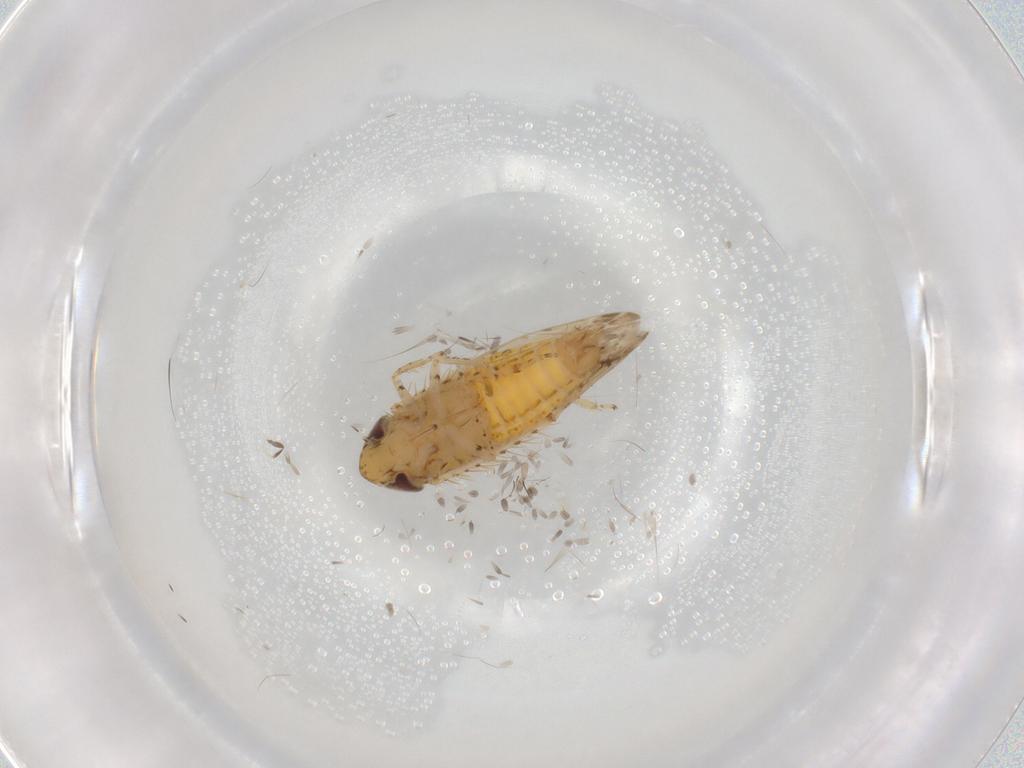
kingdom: Animalia
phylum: Arthropoda
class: Insecta
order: Hemiptera
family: Cicadellidae
